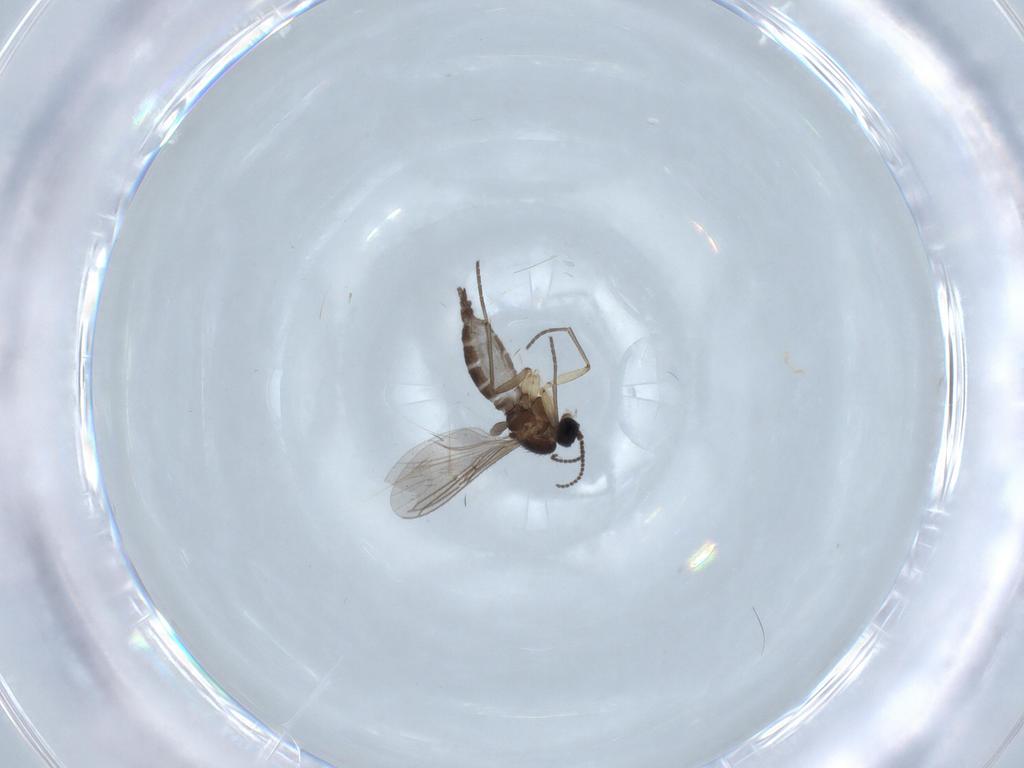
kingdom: Animalia
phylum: Arthropoda
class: Insecta
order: Diptera
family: Sciaridae
